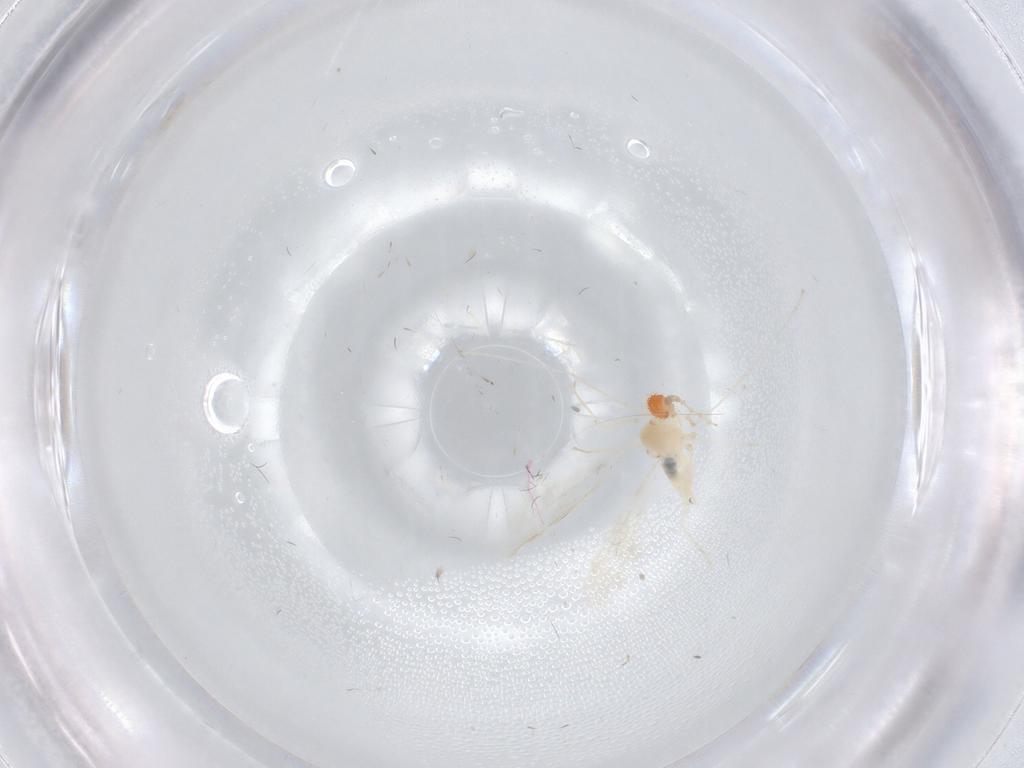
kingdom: Animalia
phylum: Arthropoda
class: Insecta
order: Diptera
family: Cecidomyiidae
